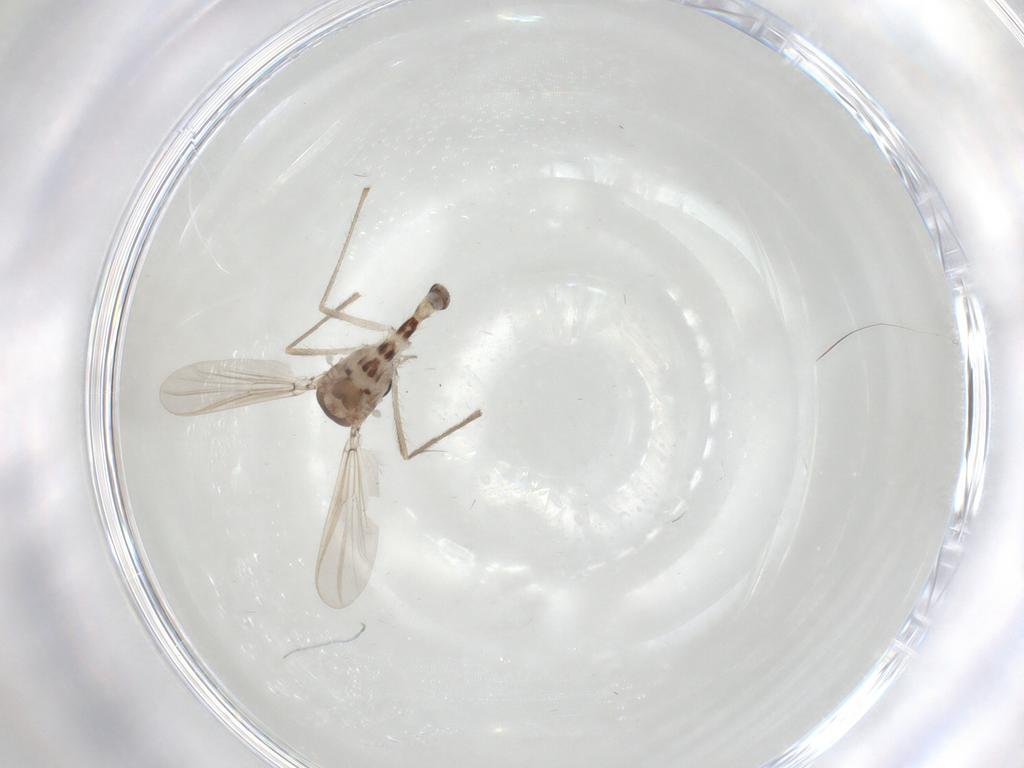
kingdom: Animalia
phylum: Arthropoda
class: Insecta
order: Diptera
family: Chironomidae
